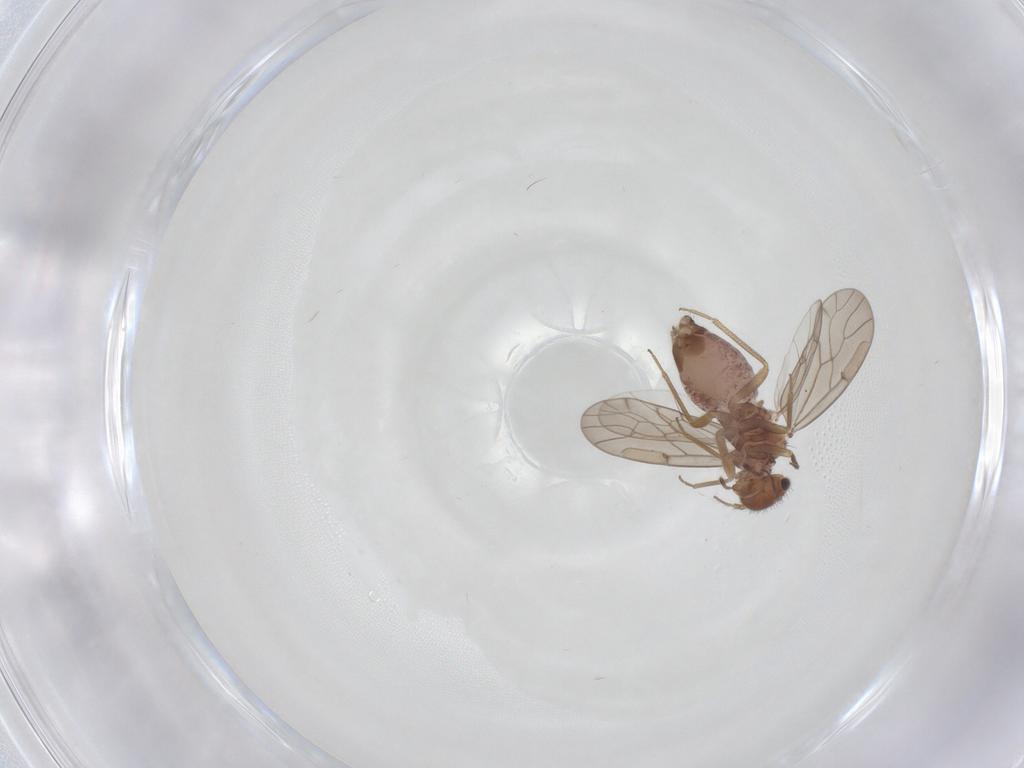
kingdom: Animalia
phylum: Arthropoda
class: Insecta
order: Psocodea
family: Ectopsocidae
